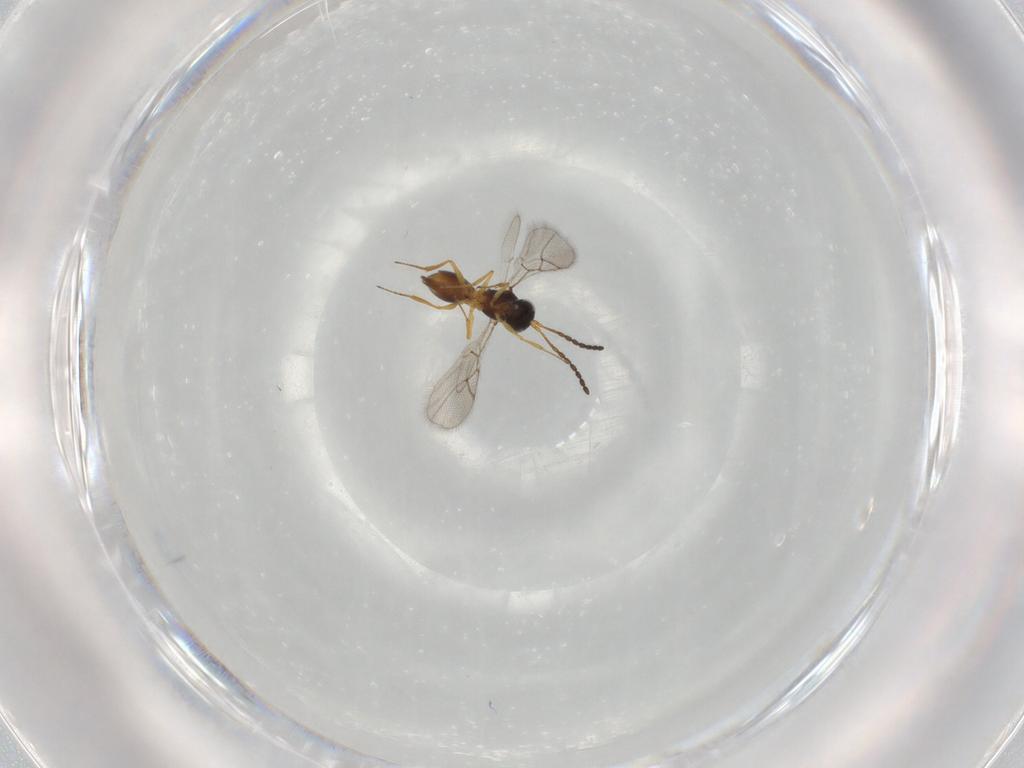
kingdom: Animalia
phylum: Arthropoda
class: Insecta
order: Hymenoptera
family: Figitidae
